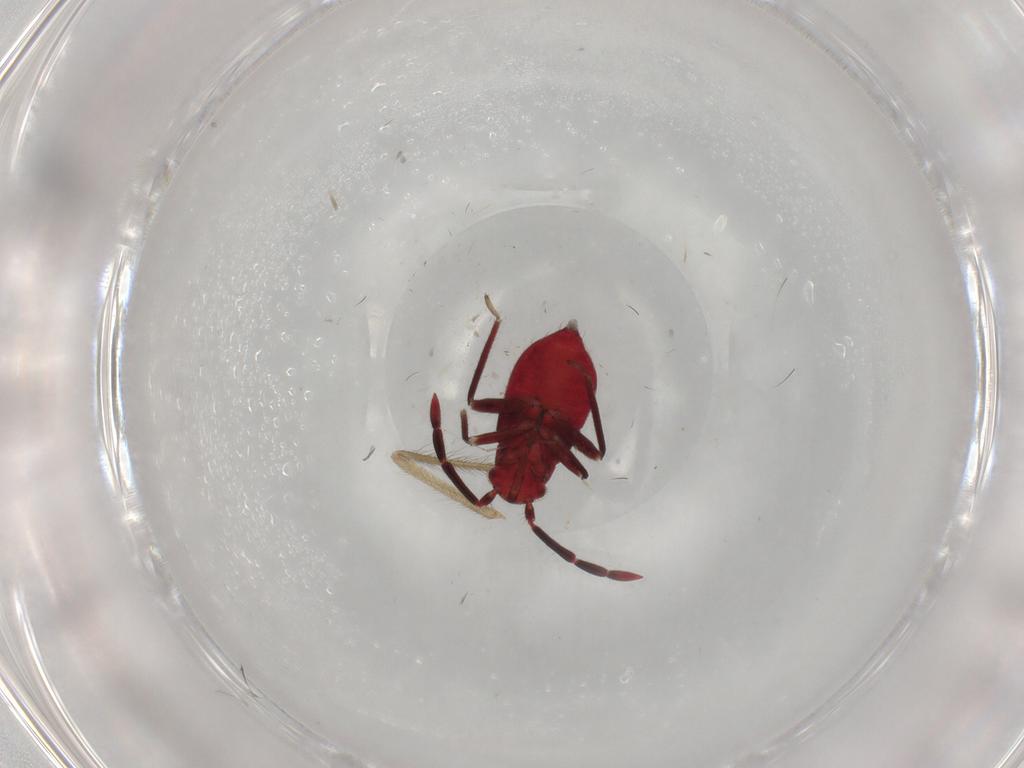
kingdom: Animalia
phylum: Arthropoda
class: Insecta
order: Hemiptera
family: Miridae
